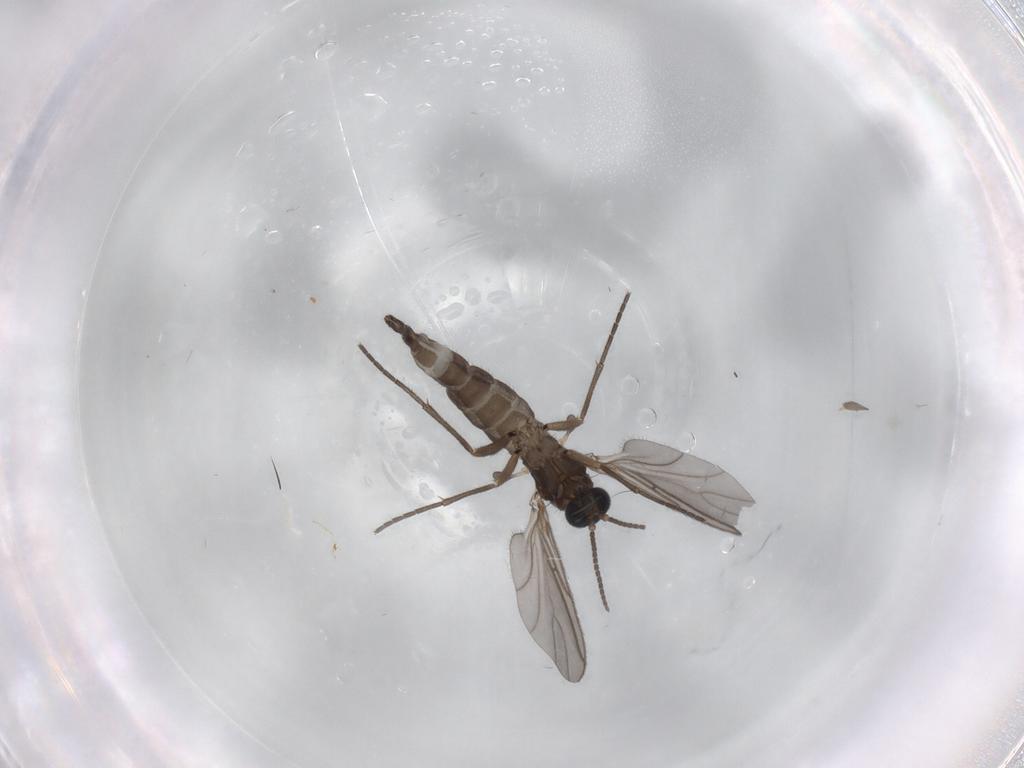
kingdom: Animalia
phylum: Arthropoda
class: Insecta
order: Diptera
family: Sciaridae
